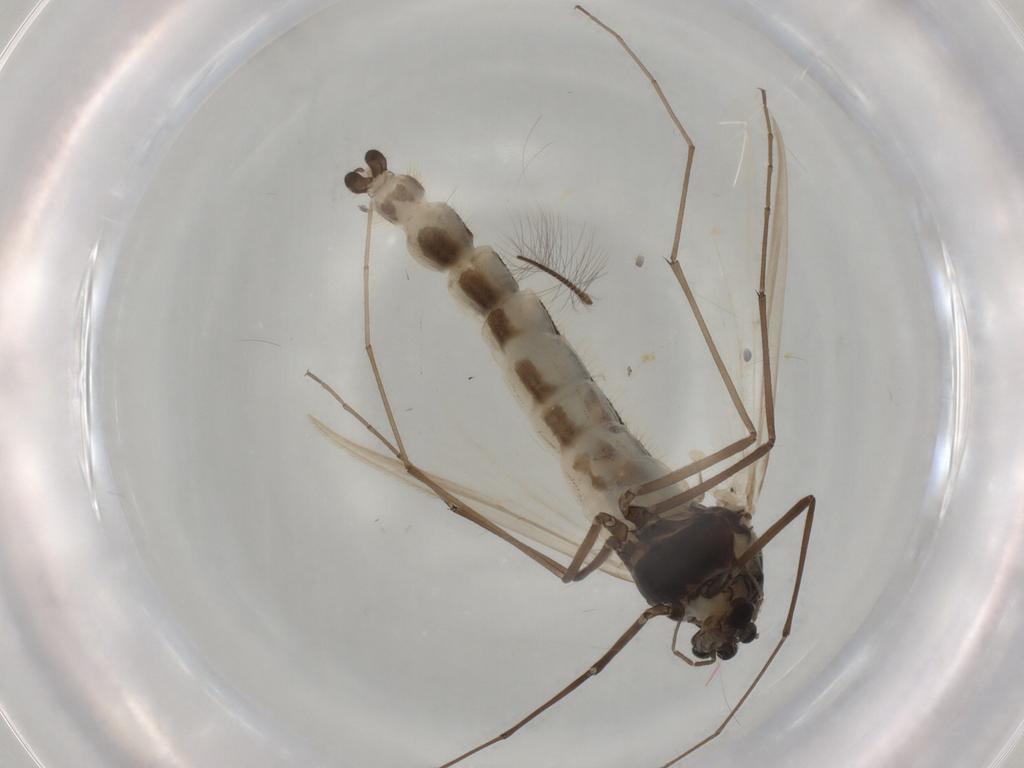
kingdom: Animalia
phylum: Arthropoda
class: Insecta
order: Diptera
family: Chironomidae
